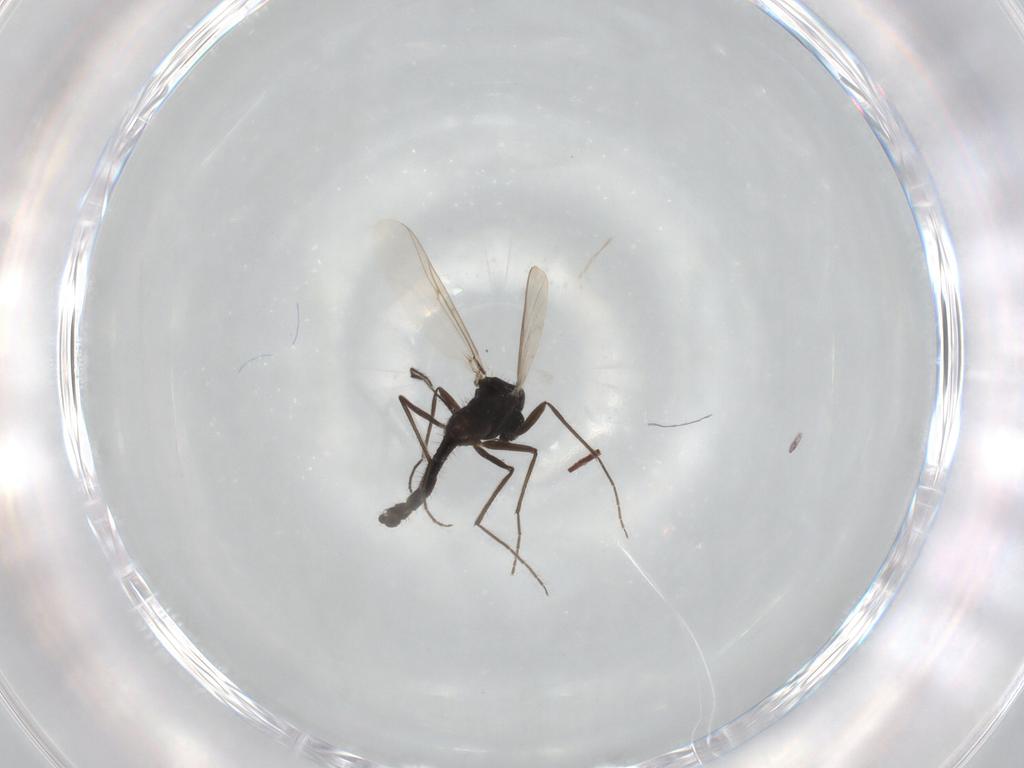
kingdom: Animalia
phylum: Arthropoda
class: Insecta
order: Diptera
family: Chironomidae
